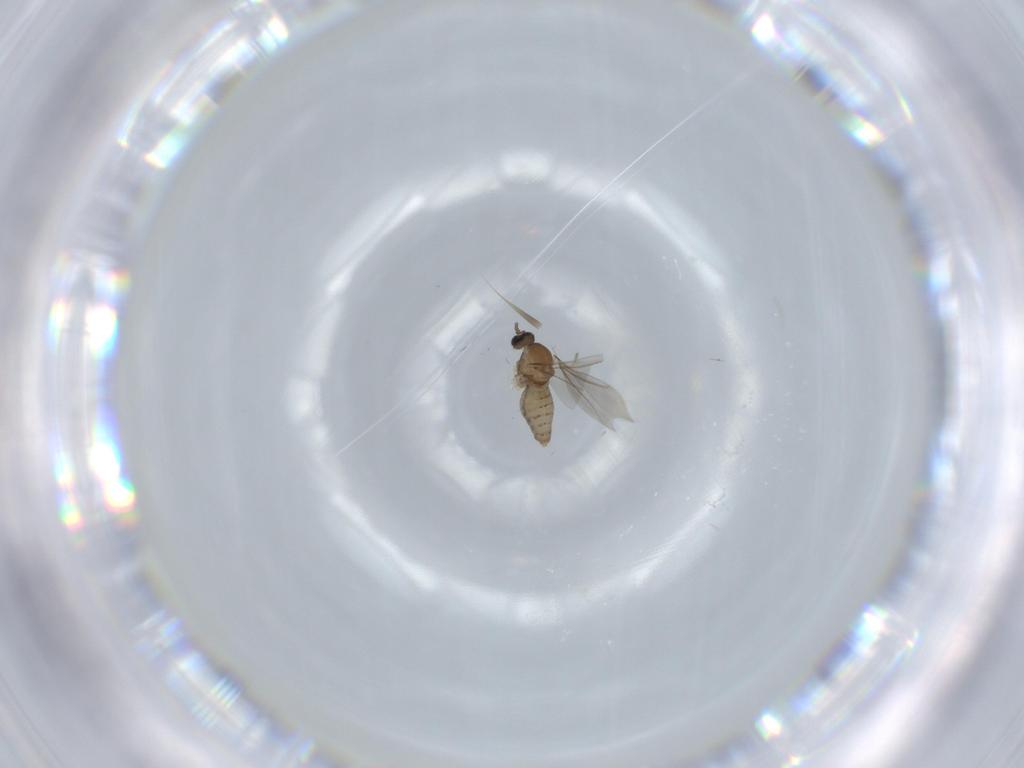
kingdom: Animalia
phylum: Arthropoda
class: Insecta
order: Diptera
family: Cecidomyiidae
